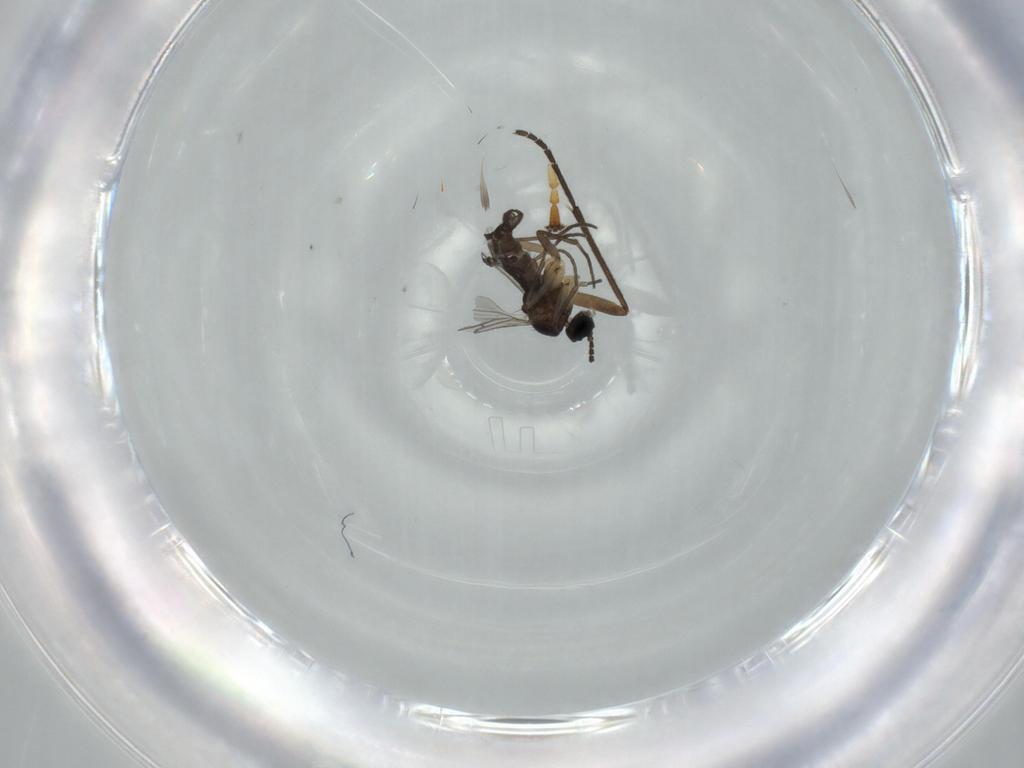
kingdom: Animalia
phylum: Arthropoda
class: Insecta
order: Diptera
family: Sciaridae
